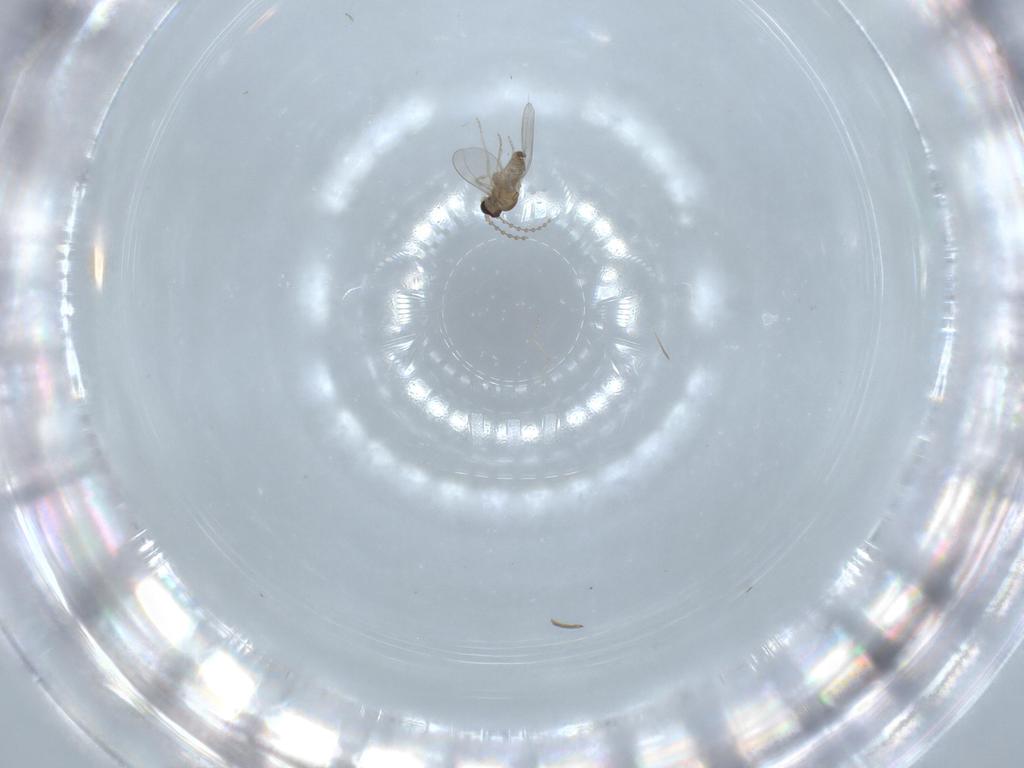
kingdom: Animalia
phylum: Arthropoda
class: Insecta
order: Diptera
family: Cecidomyiidae
